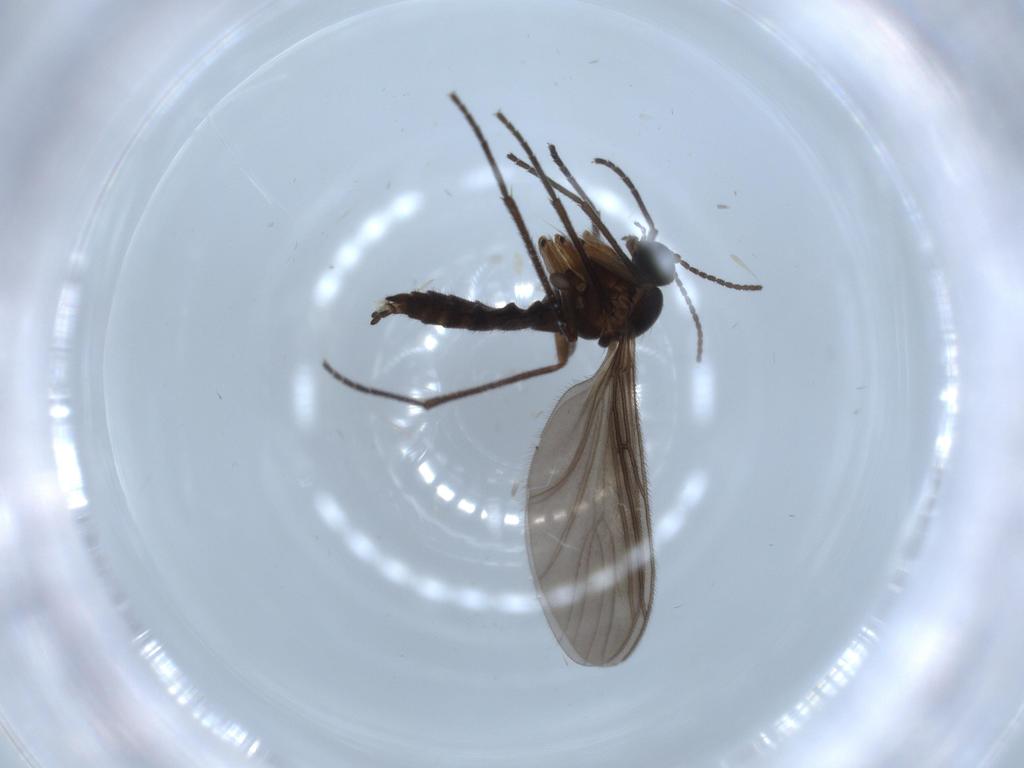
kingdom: Animalia
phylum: Arthropoda
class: Insecta
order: Diptera
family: Sciaridae
